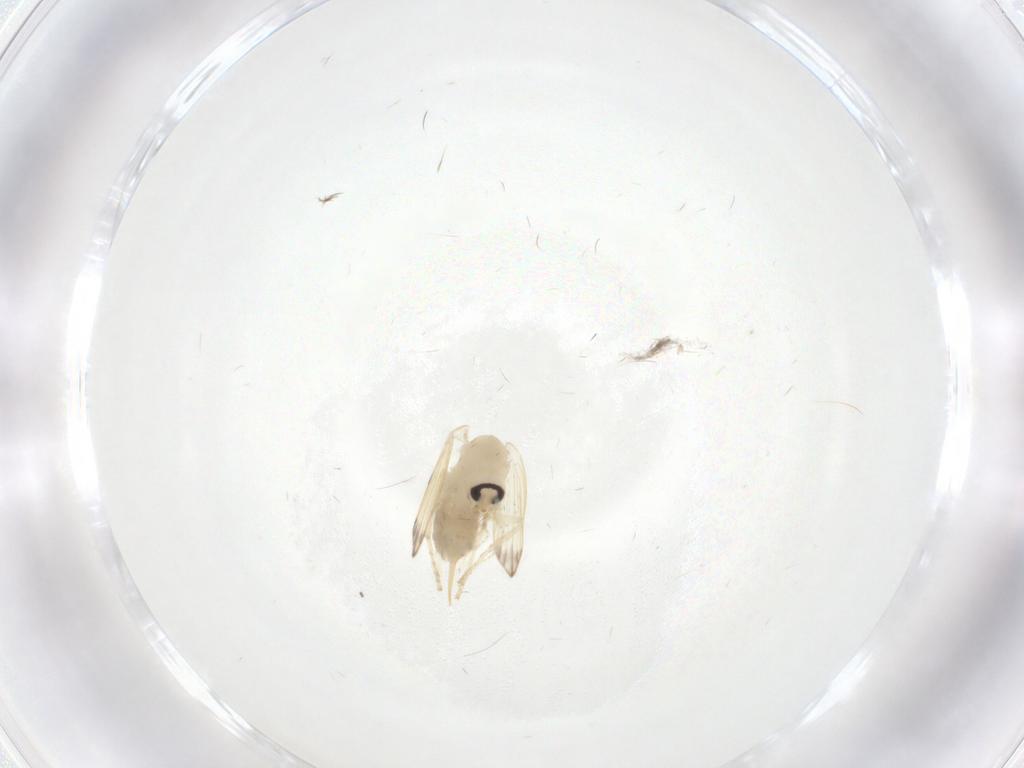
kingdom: Animalia
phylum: Arthropoda
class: Insecta
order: Diptera
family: Psychodidae
